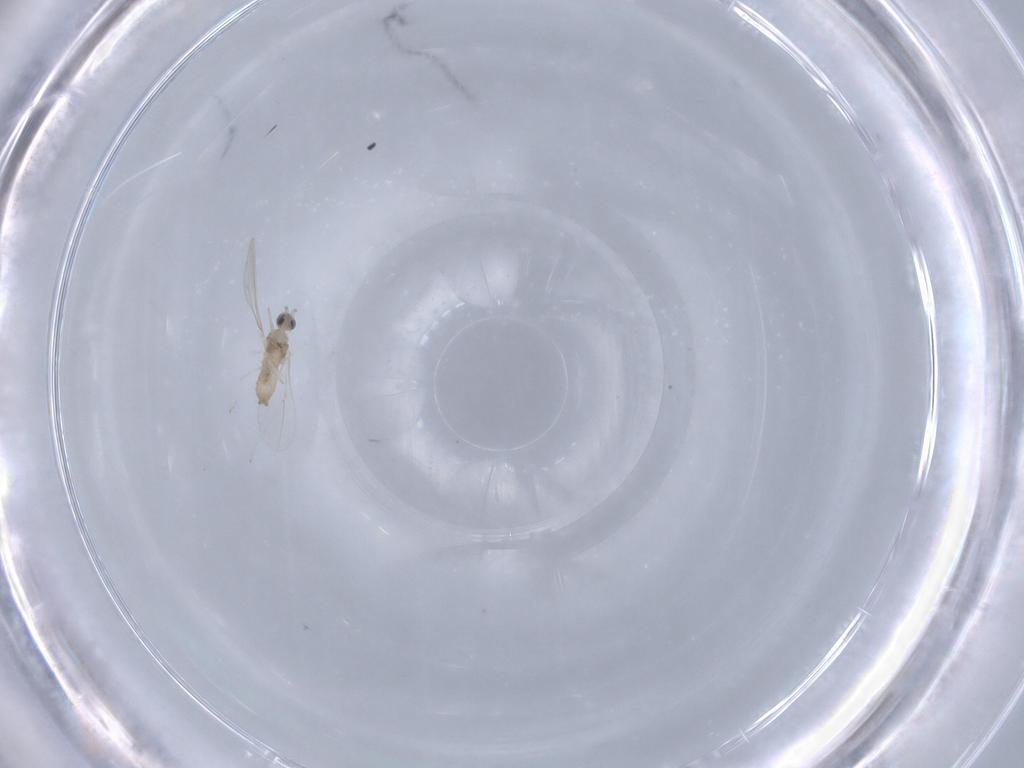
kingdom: Animalia
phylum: Arthropoda
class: Insecta
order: Diptera
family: Cecidomyiidae
